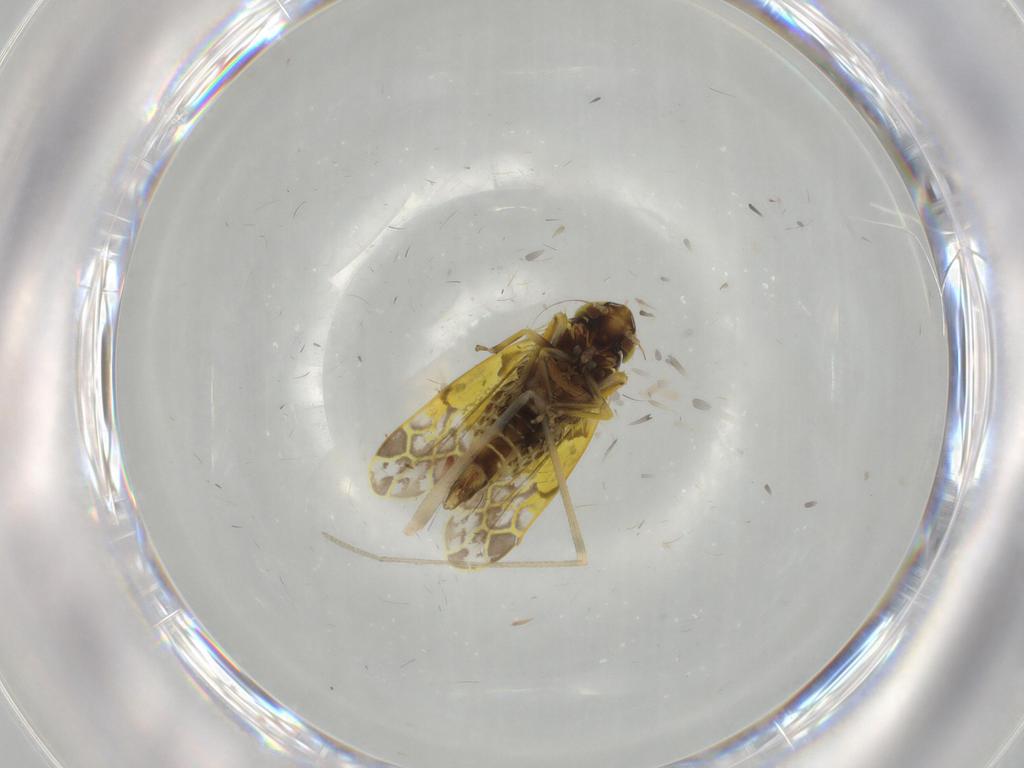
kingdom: Animalia
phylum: Arthropoda
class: Insecta
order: Hemiptera
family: Cicadellidae
